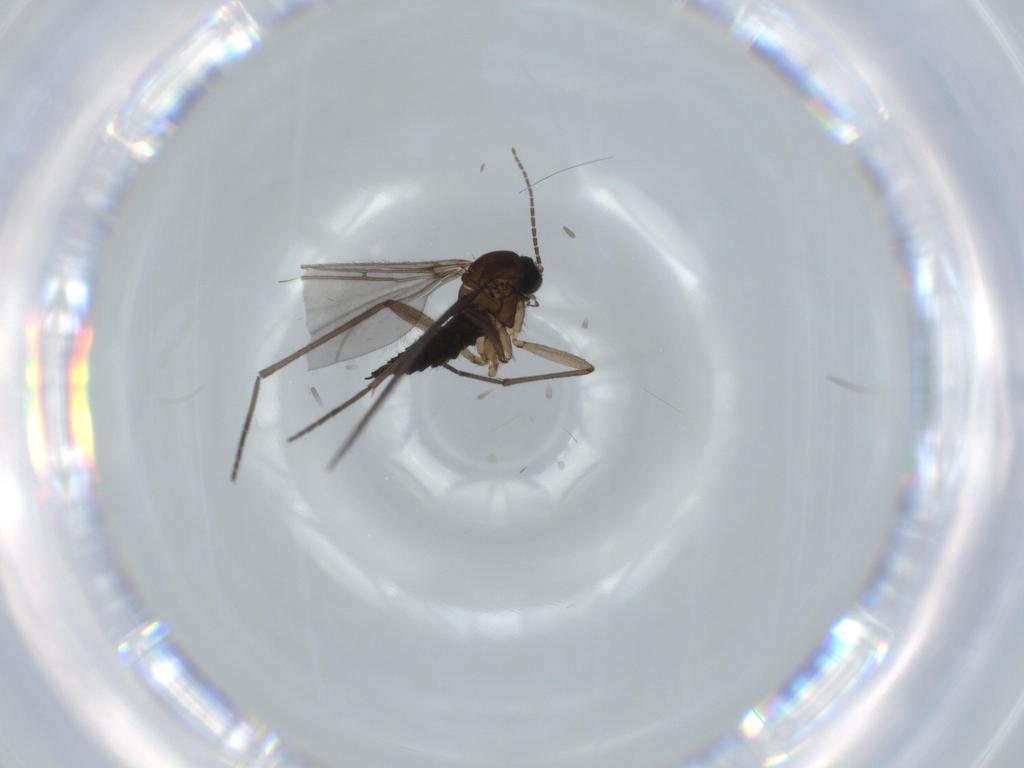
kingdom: Animalia
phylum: Arthropoda
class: Insecta
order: Diptera
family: Sciaridae
